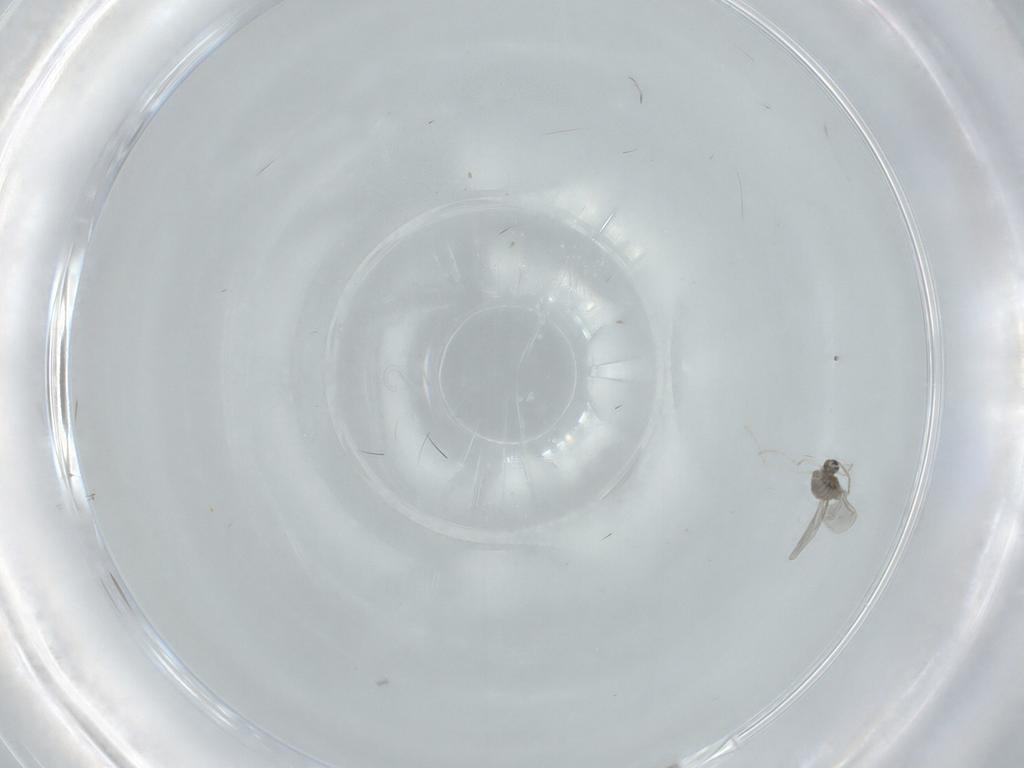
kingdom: Animalia
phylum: Arthropoda
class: Insecta
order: Diptera
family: Cecidomyiidae
